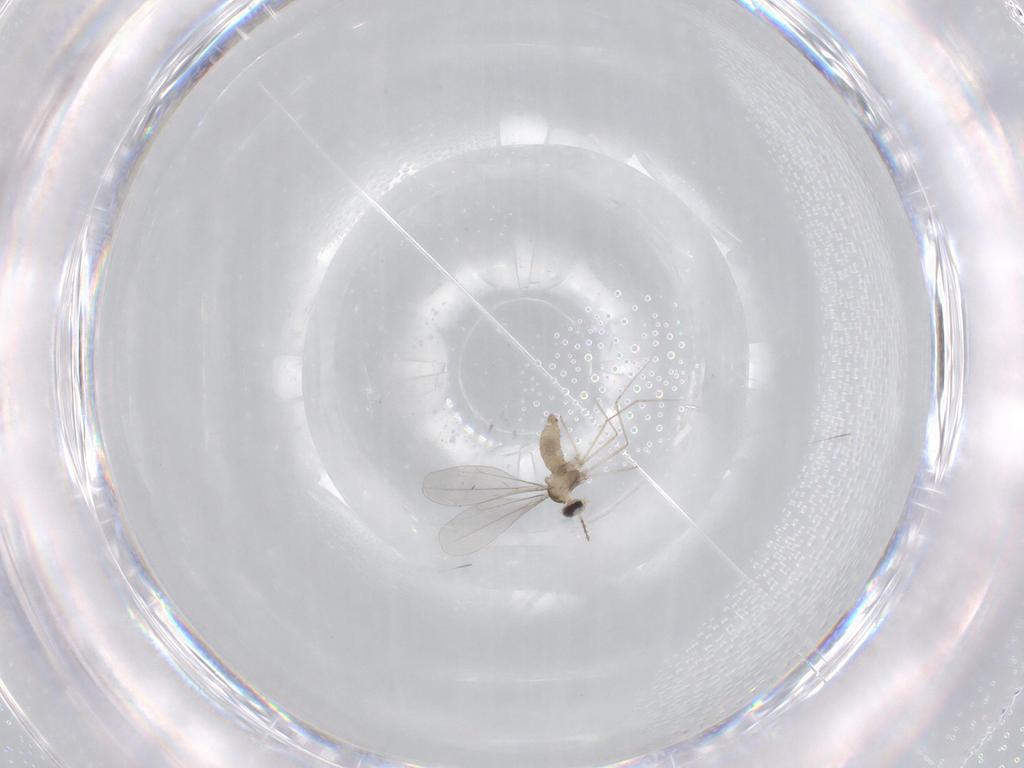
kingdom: Animalia
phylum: Arthropoda
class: Insecta
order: Diptera
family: Cecidomyiidae
